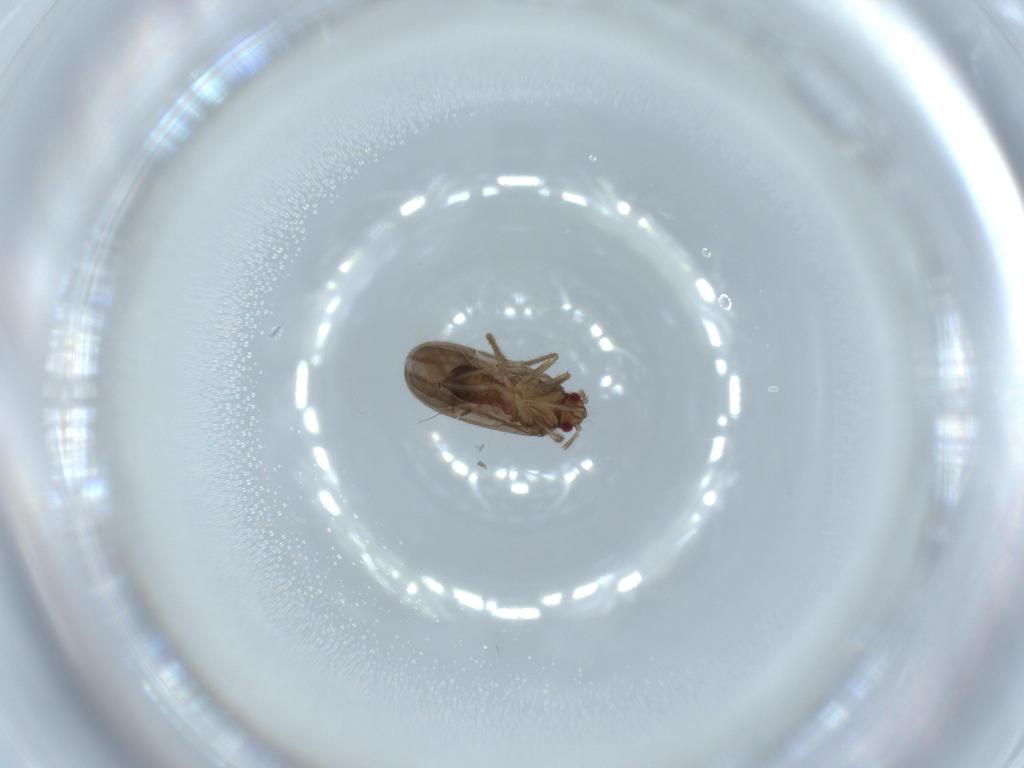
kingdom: Animalia
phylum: Arthropoda
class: Insecta
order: Hemiptera
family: Ceratocombidae
